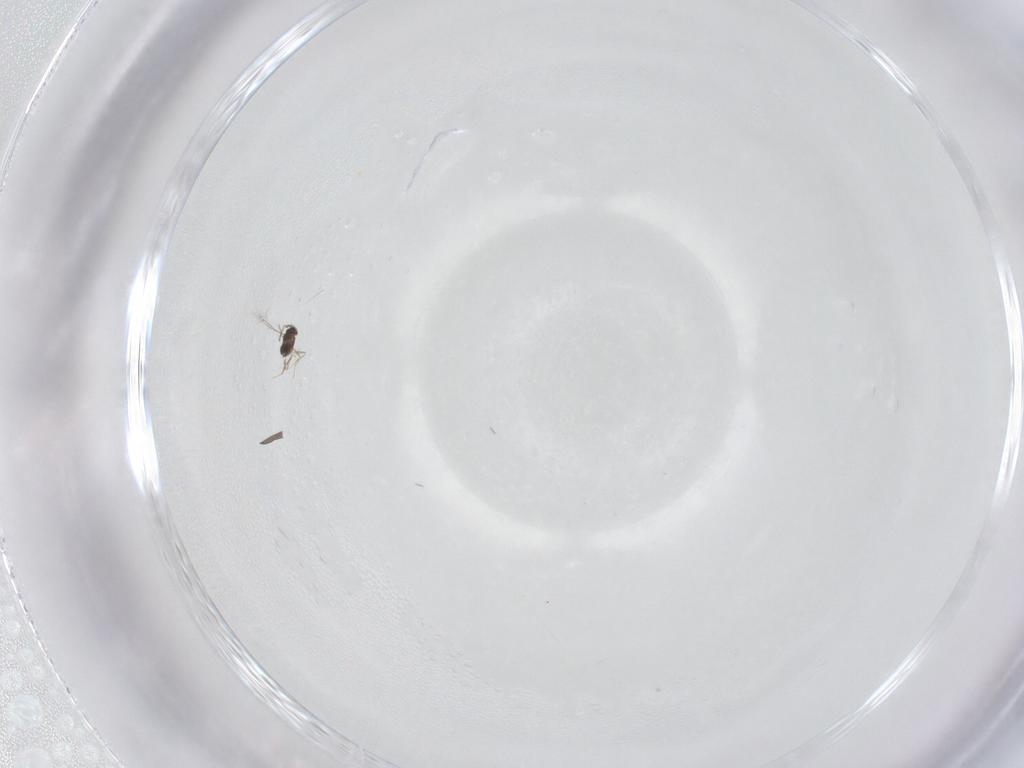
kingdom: Animalia
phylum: Arthropoda
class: Insecta
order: Hymenoptera
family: Mymaridae
